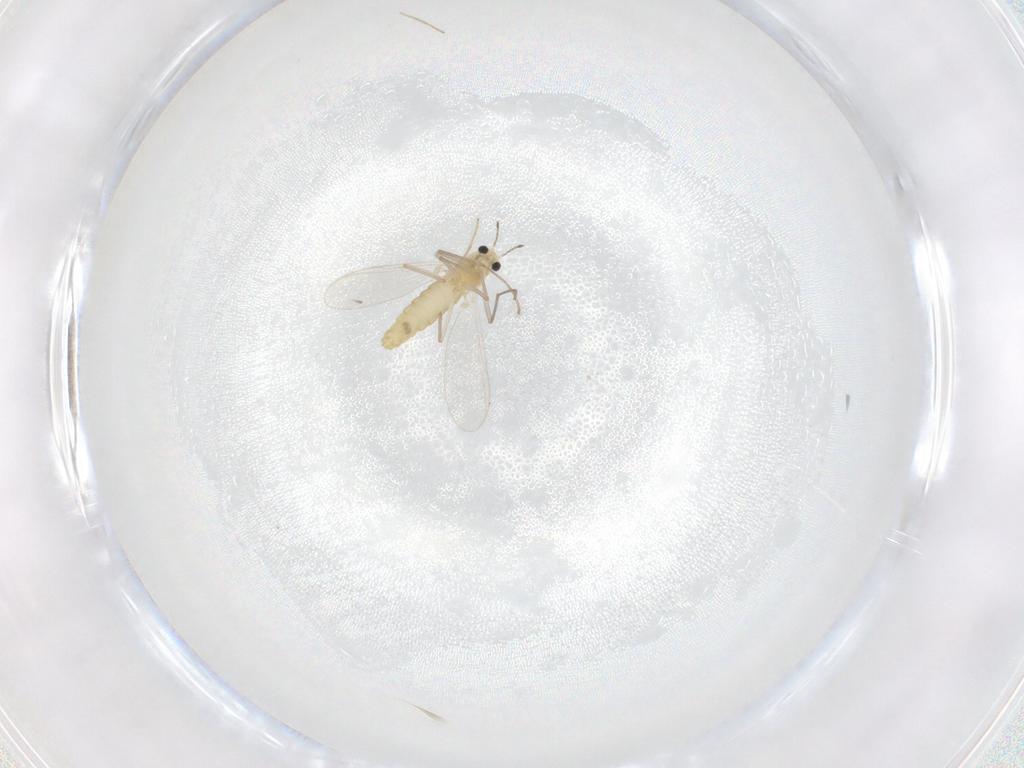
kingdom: Animalia
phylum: Arthropoda
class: Insecta
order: Diptera
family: Chironomidae
